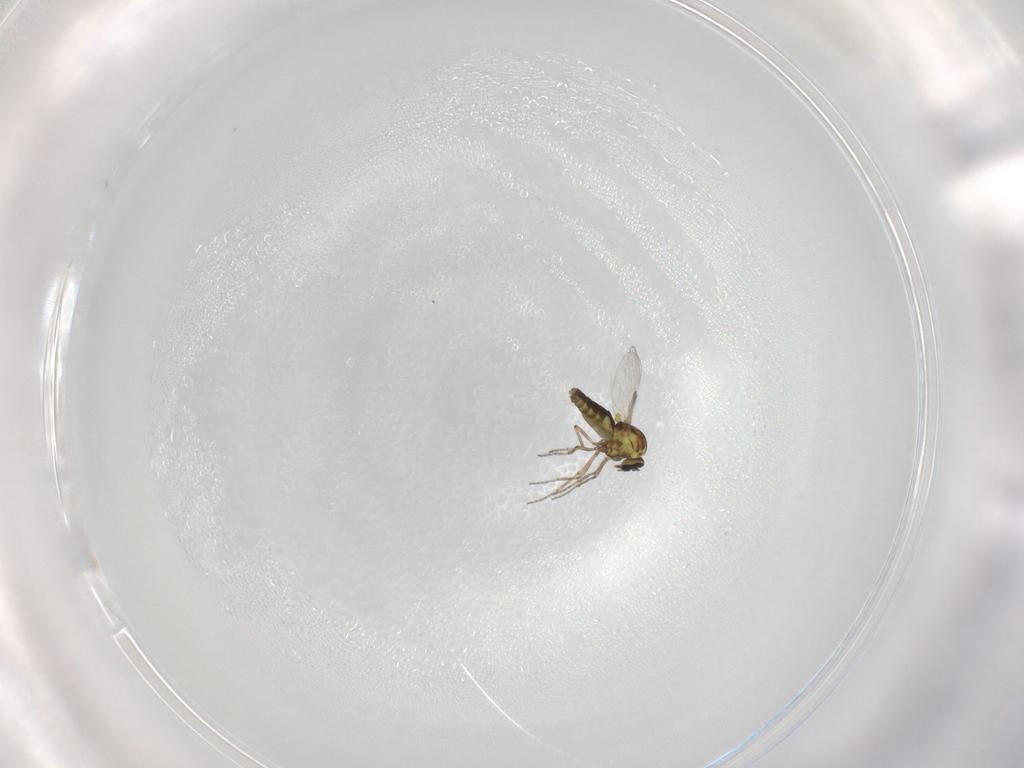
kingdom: Animalia
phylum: Arthropoda
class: Insecta
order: Diptera
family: Ceratopogonidae
